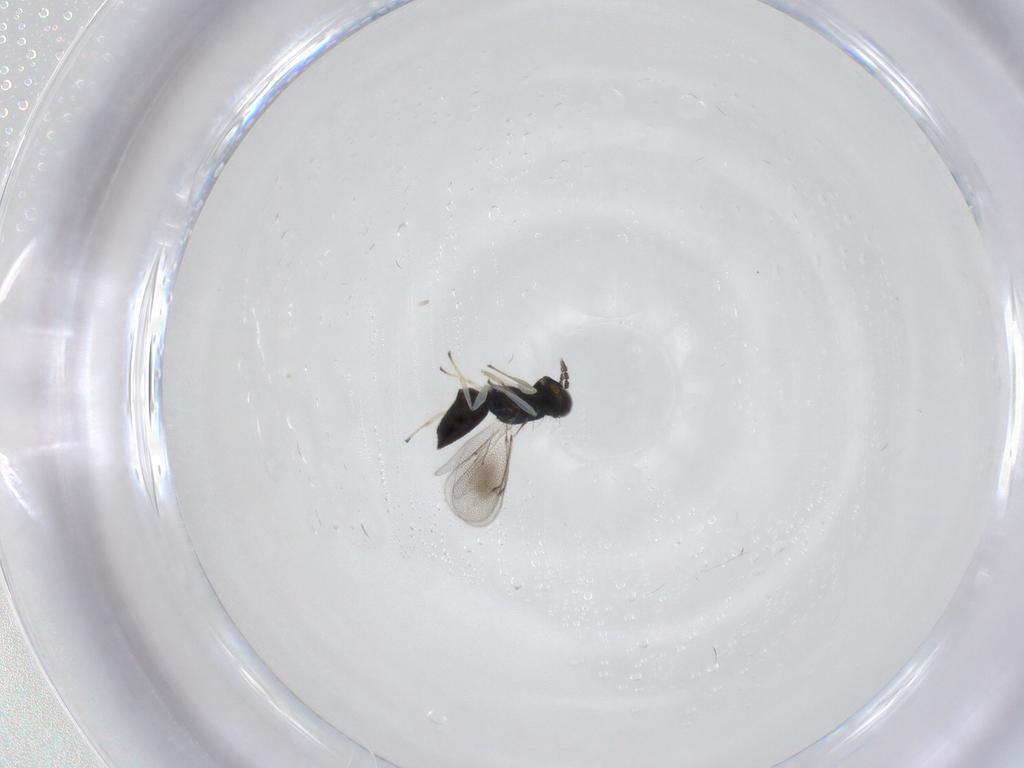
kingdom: Animalia
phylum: Arthropoda
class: Insecta
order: Hymenoptera
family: Eulophidae
